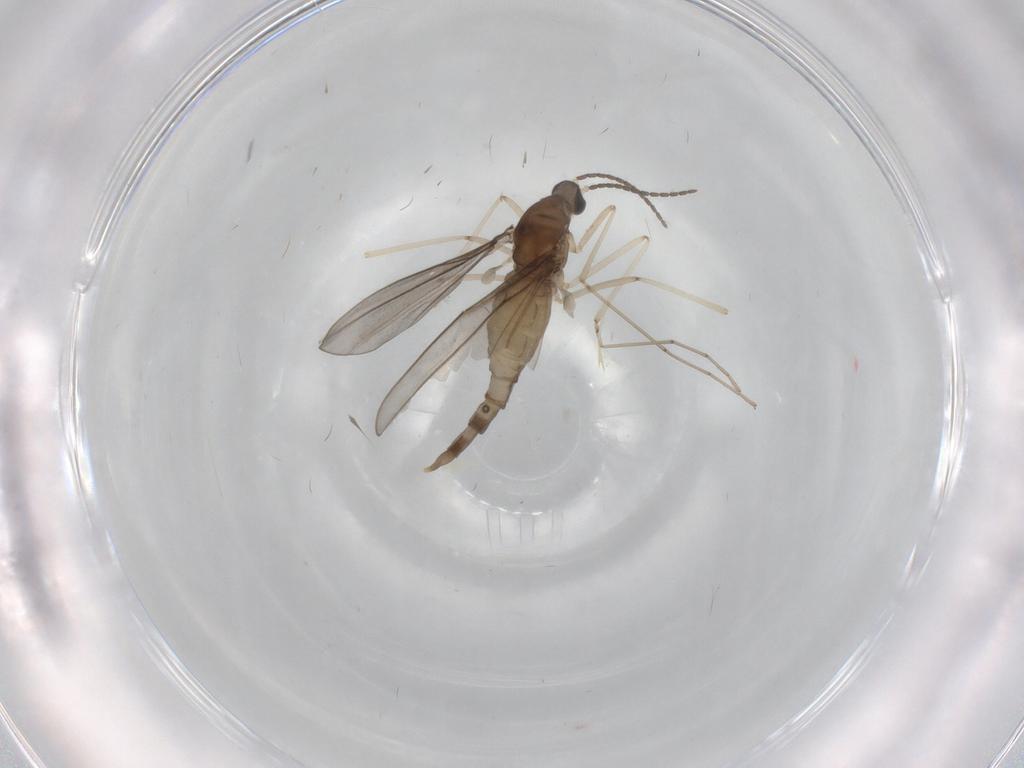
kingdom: Animalia
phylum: Arthropoda
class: Insecta
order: Diptera
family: Cecidomyiidae
